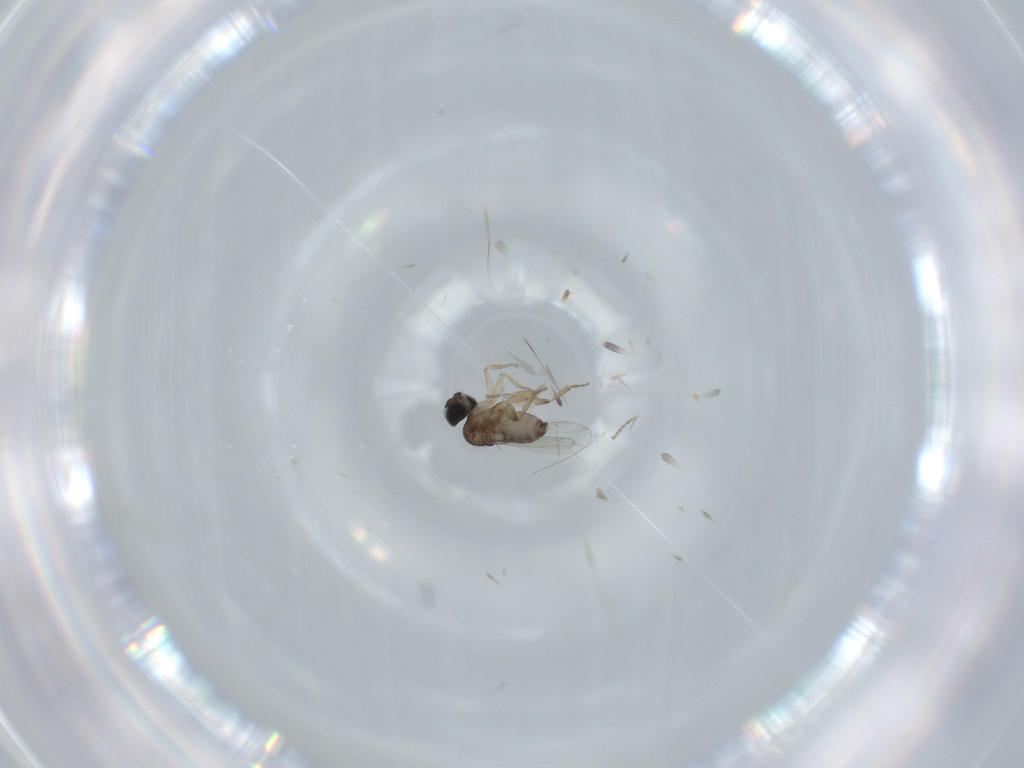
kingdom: Animalia
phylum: Arthropoda
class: Insecta
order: Diptera
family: Phoridae
